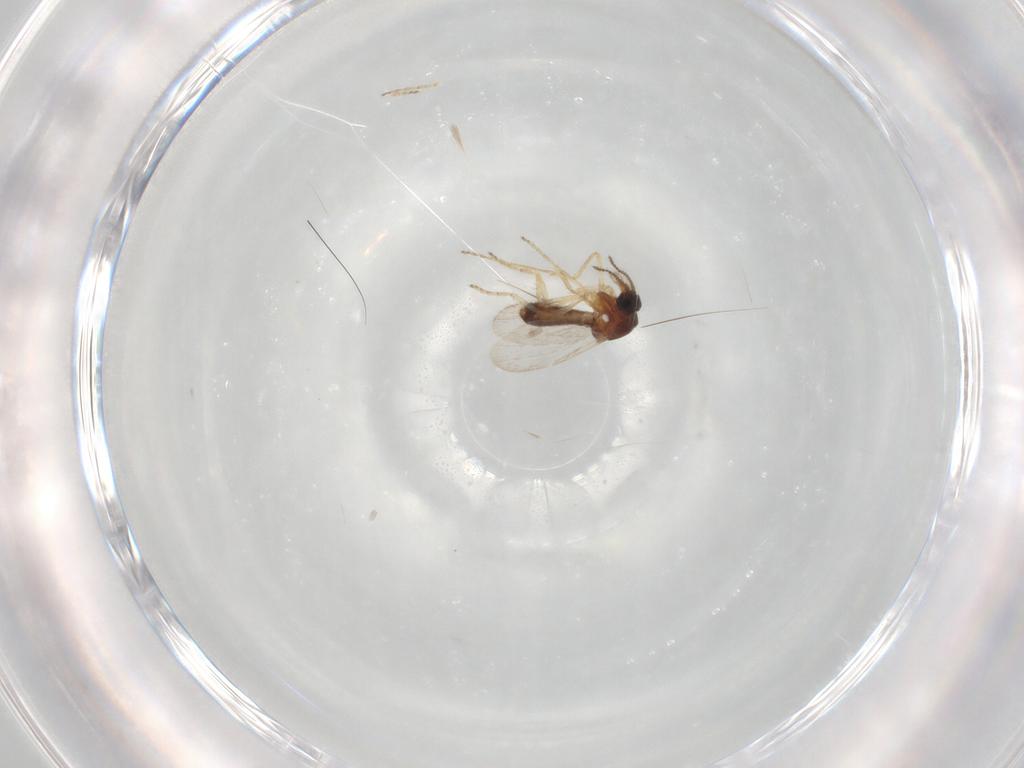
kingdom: Animalia
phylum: Arthropoda
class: Insecta
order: Diptera
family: Ceratopogonidae
